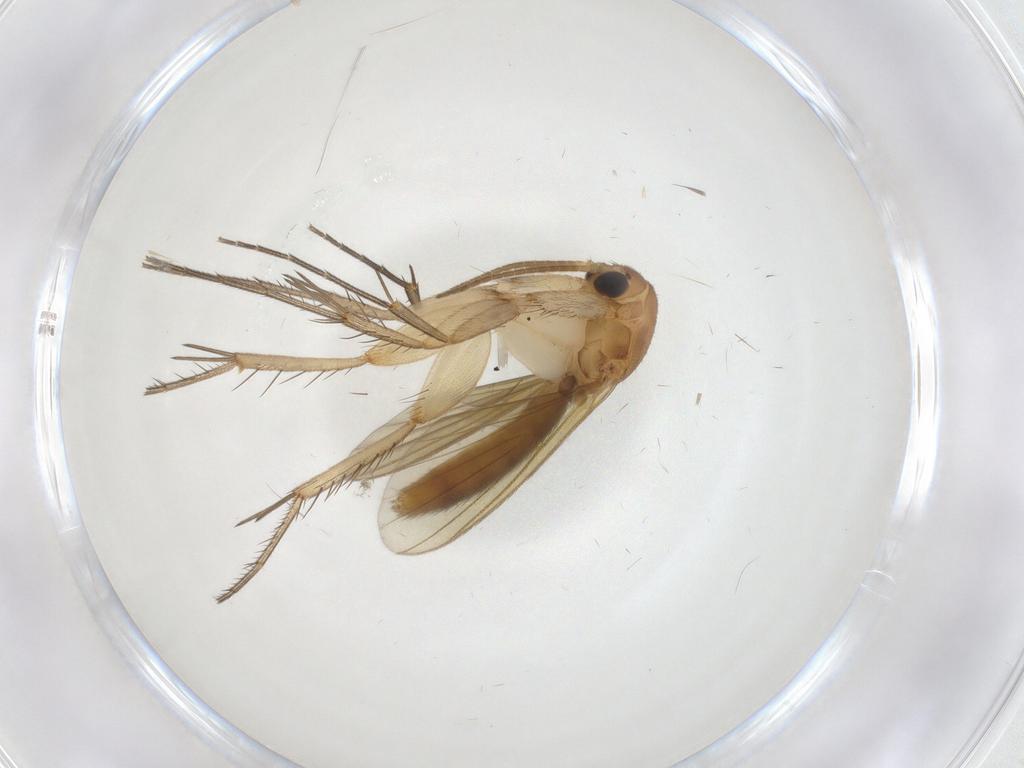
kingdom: Animalia
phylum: Arthropoda
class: Insecta
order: Diptera
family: Mycetophilidae
